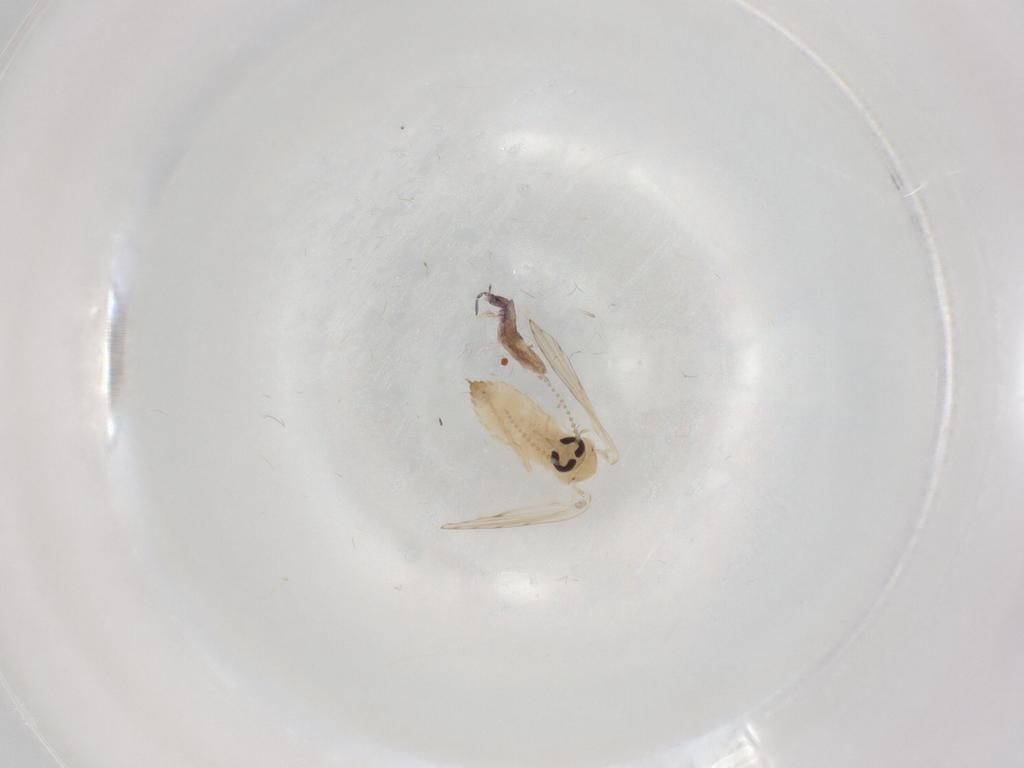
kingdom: Animalia
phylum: Arthropoda
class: Insecta
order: Diptera
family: Psychodidae
